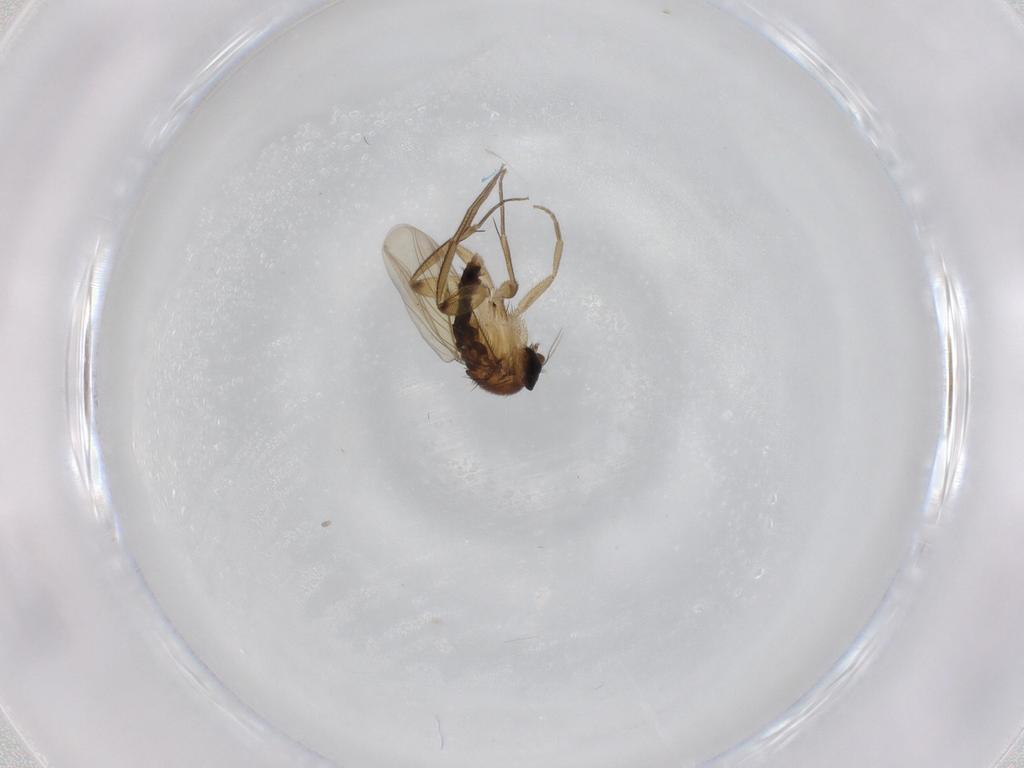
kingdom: Animalia
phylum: Arthropoda
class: Insecta
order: Diptera
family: Phoridae
